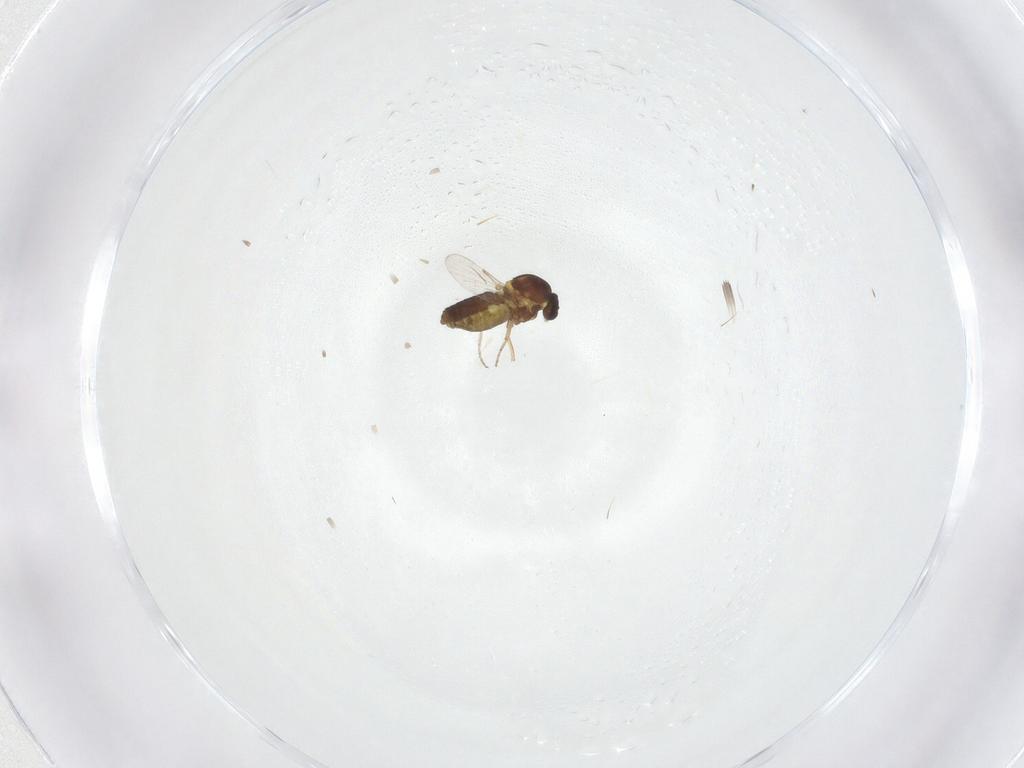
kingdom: Animalia
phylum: Arthropoda
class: Insecta
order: Diptera
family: Ceratopogonidae
